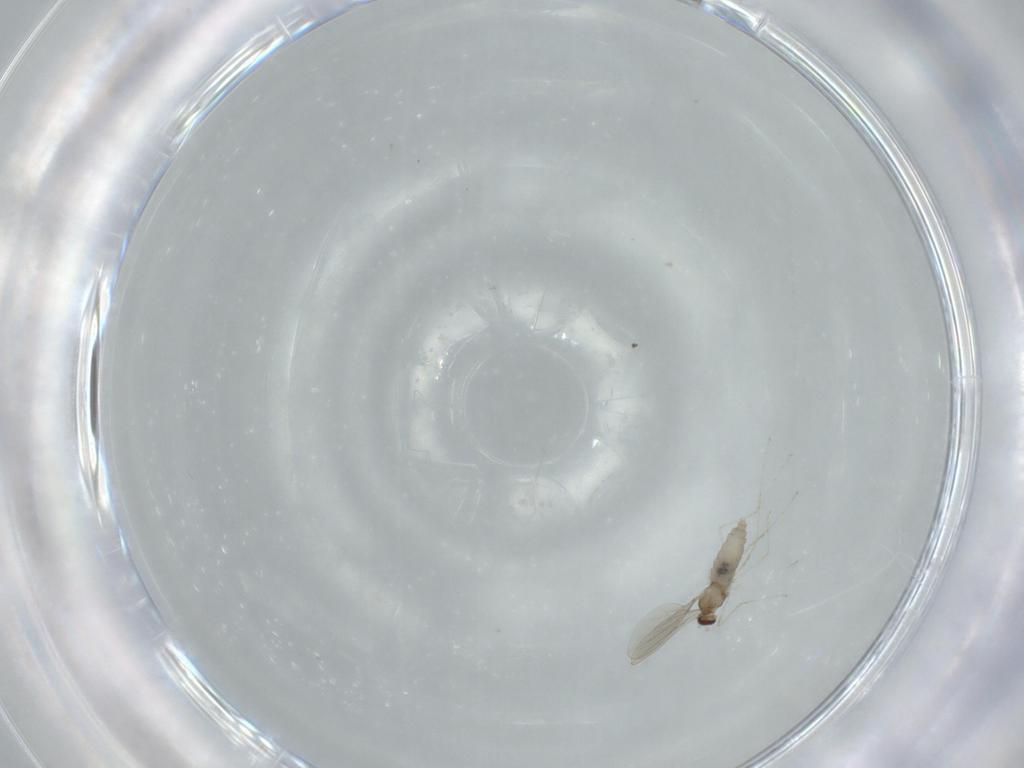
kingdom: Animalia
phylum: Arthropoda
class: Insecta
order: Diptera
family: Cecidomyiidae
